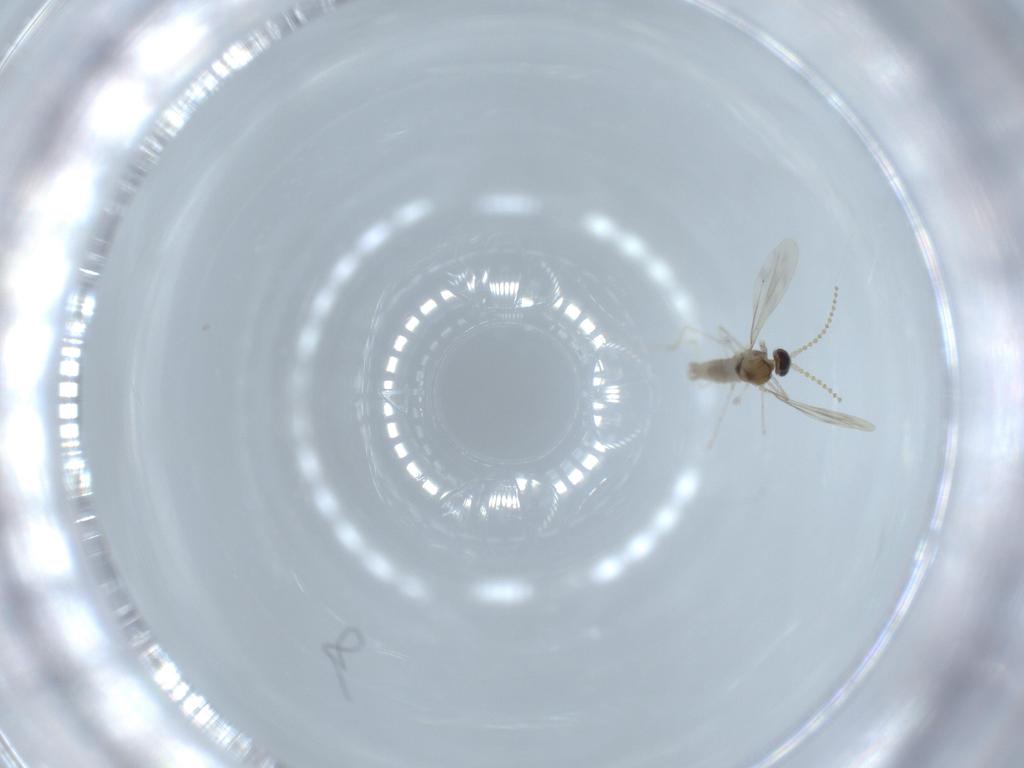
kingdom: Animalia
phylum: Arthropoda
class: Insecta
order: Diptera
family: Cecidomyiidae
